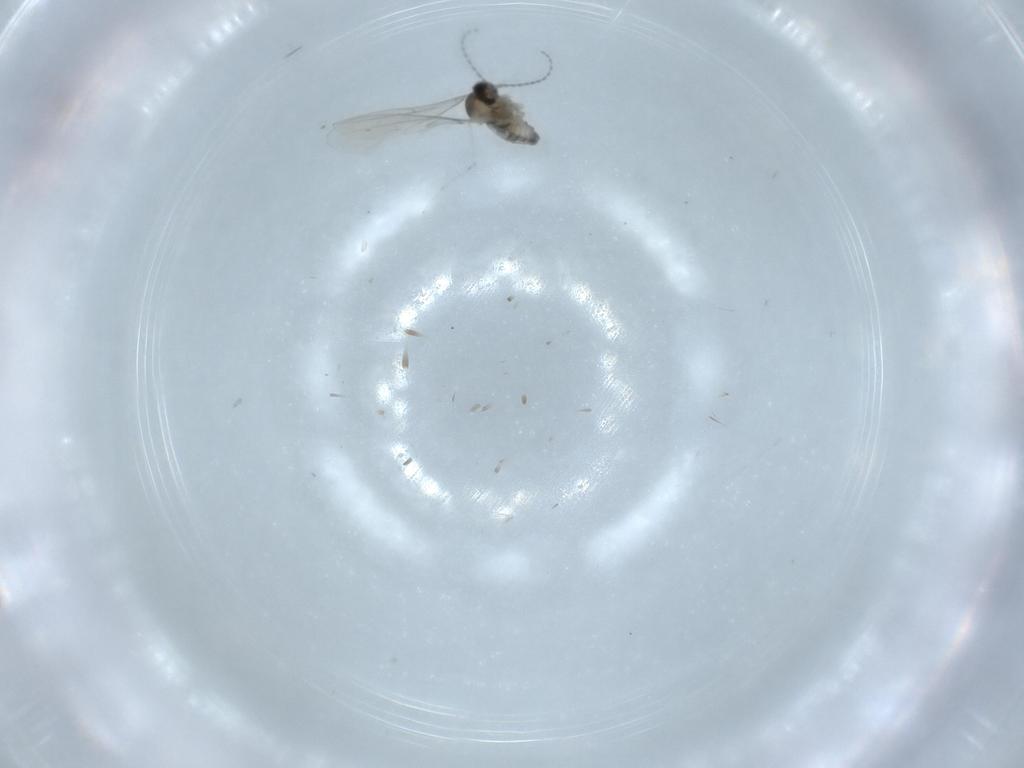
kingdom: Animalia
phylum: Arthropoda
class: Insecta
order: Diptera
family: Cecidomyiidae
